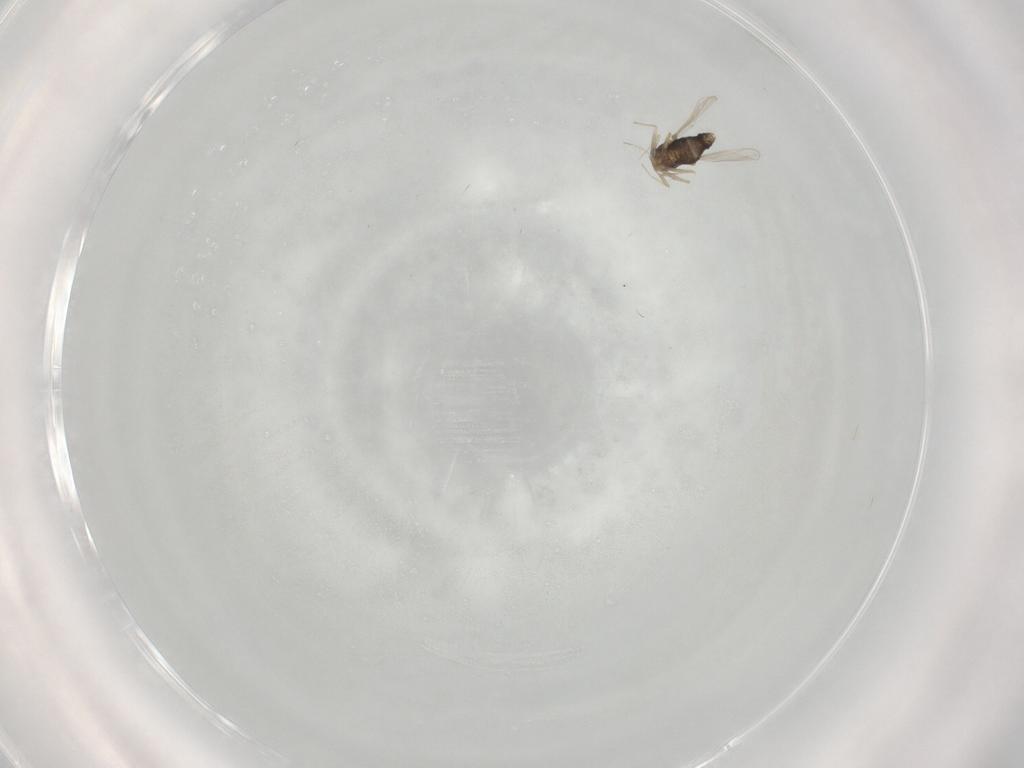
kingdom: Animalia
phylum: Arthropoda
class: Insecta
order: Diptera
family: Chironomidae
